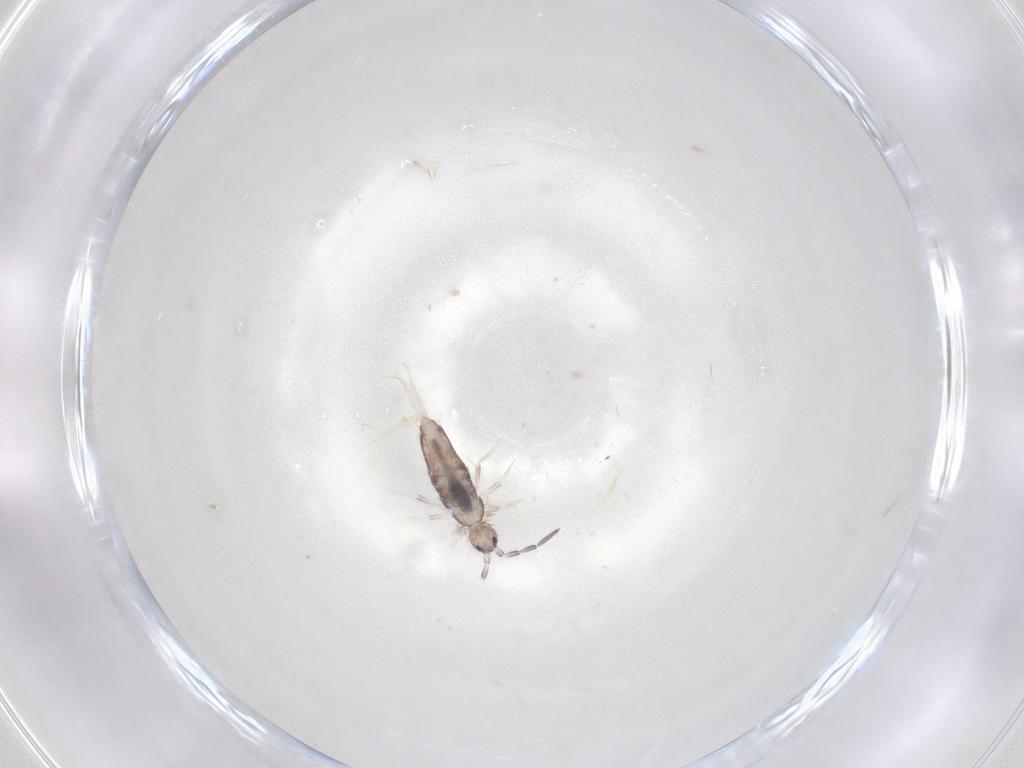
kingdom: Animalia
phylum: Arthropoda
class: Collembola
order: Entomobryomorpha
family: Entomobryidae
